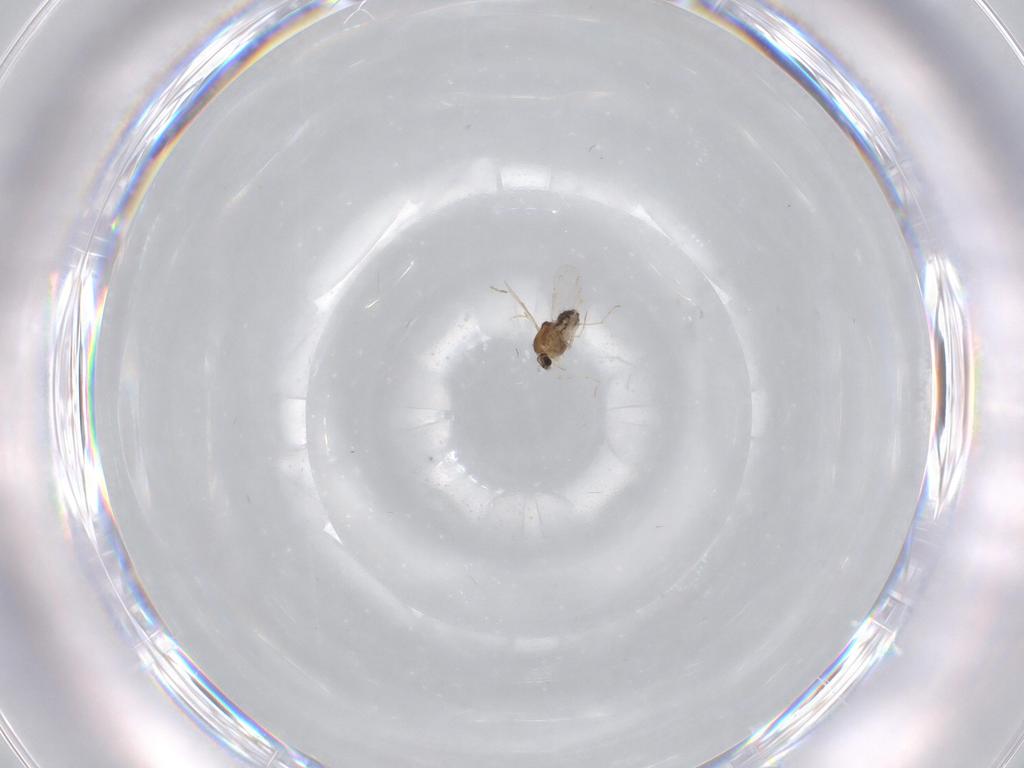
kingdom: Animalia
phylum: Arthropoda
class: Insecta
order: Diptera
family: Chironomidae
